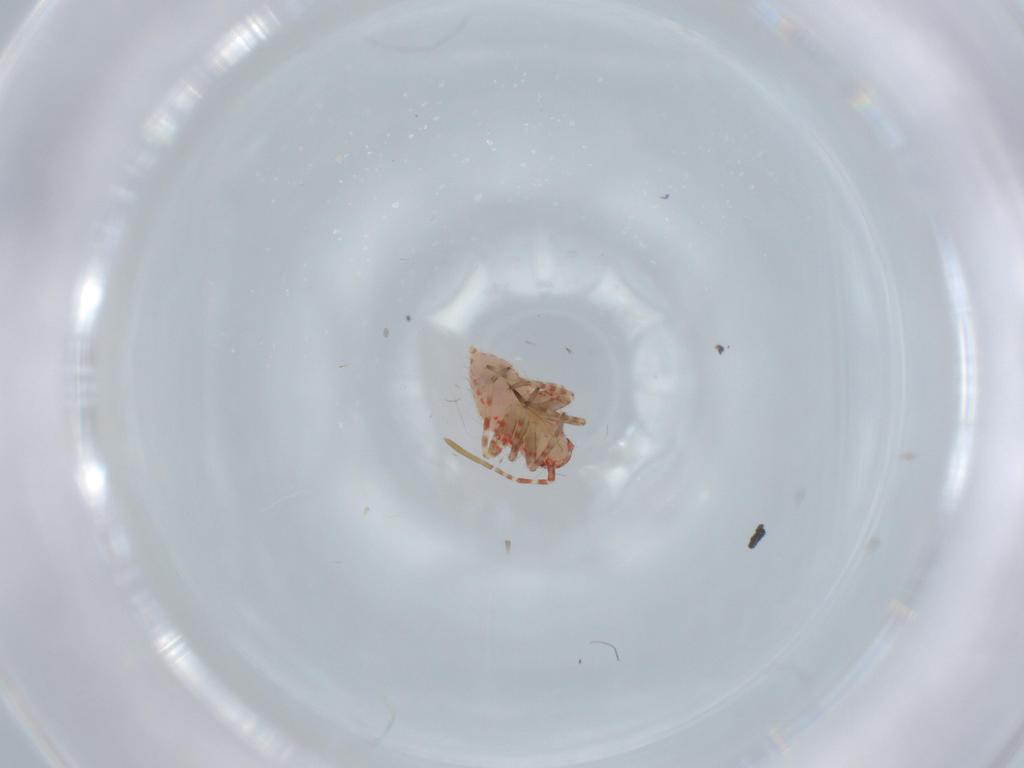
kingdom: Animalia
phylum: Arthropoda
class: Insecta
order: Hemiptera
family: Miridae
